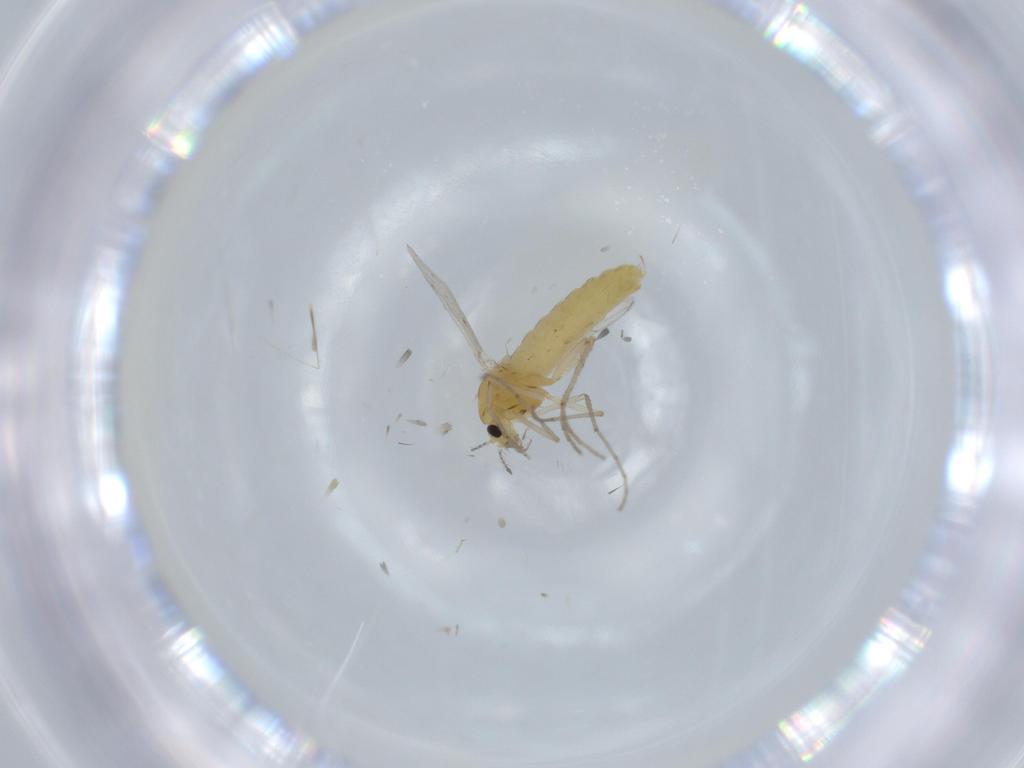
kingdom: Animalia
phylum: Arthropoda
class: Insecta
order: Diptera
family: Chironomidae
